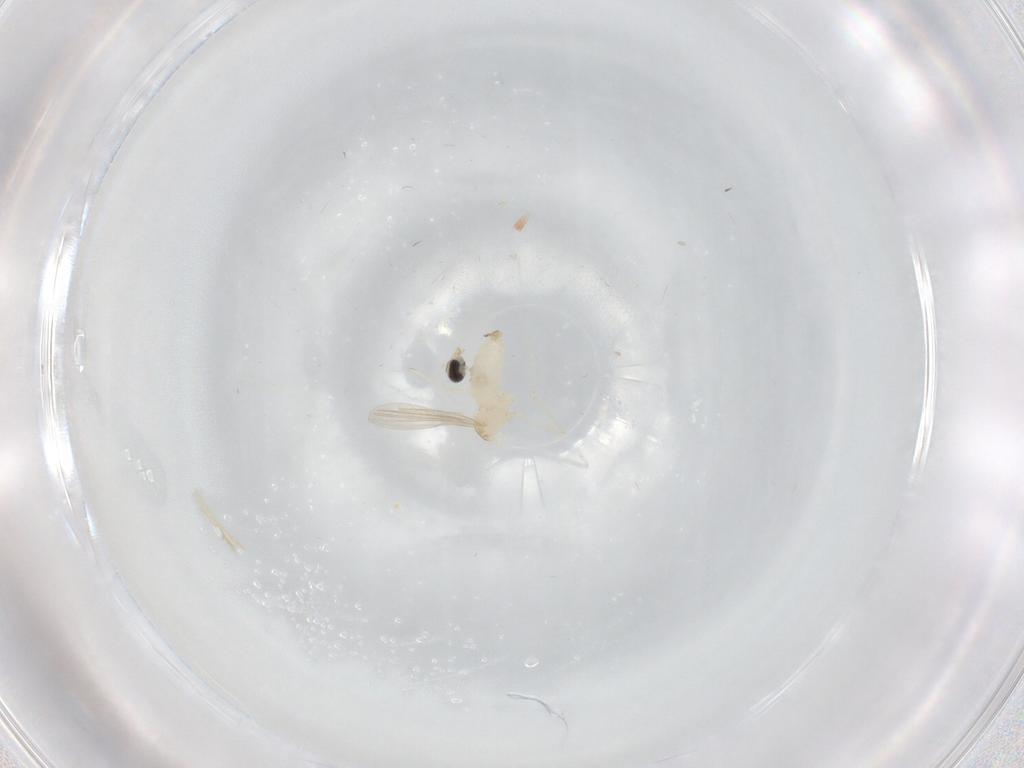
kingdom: Animalia
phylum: Arthropoda
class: Insecta
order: Diptera
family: Cecidomyiidae
